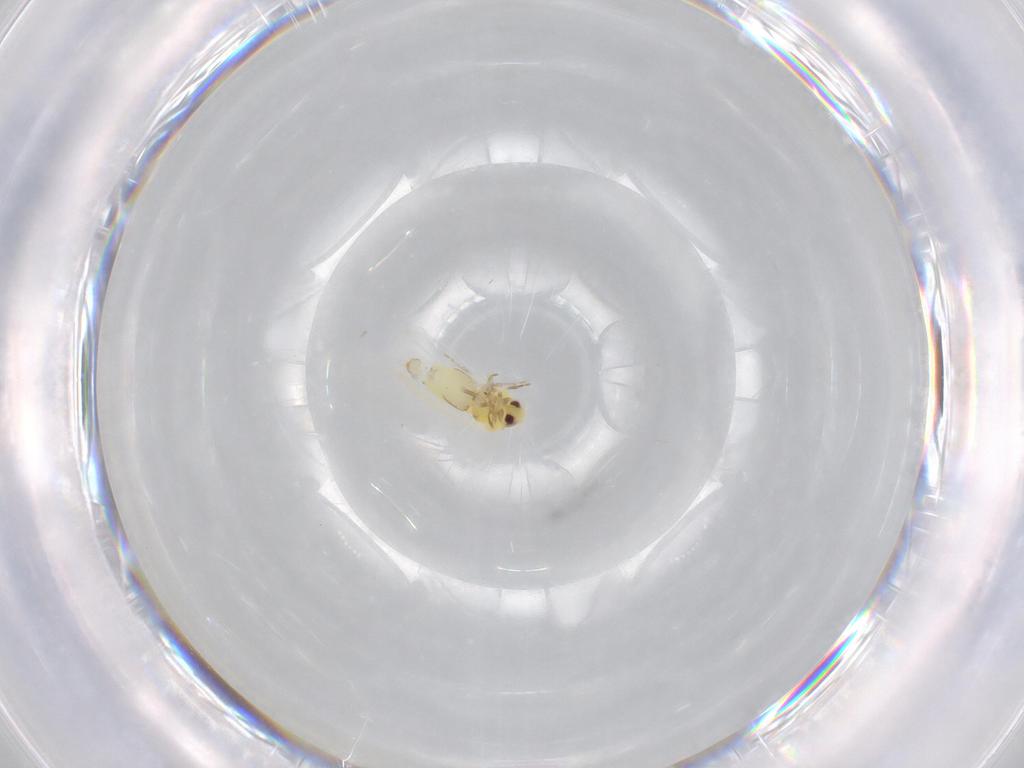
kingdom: Animalia
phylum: Arthropoda
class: Insecta
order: Hemiptera
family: Aleyrodidae
